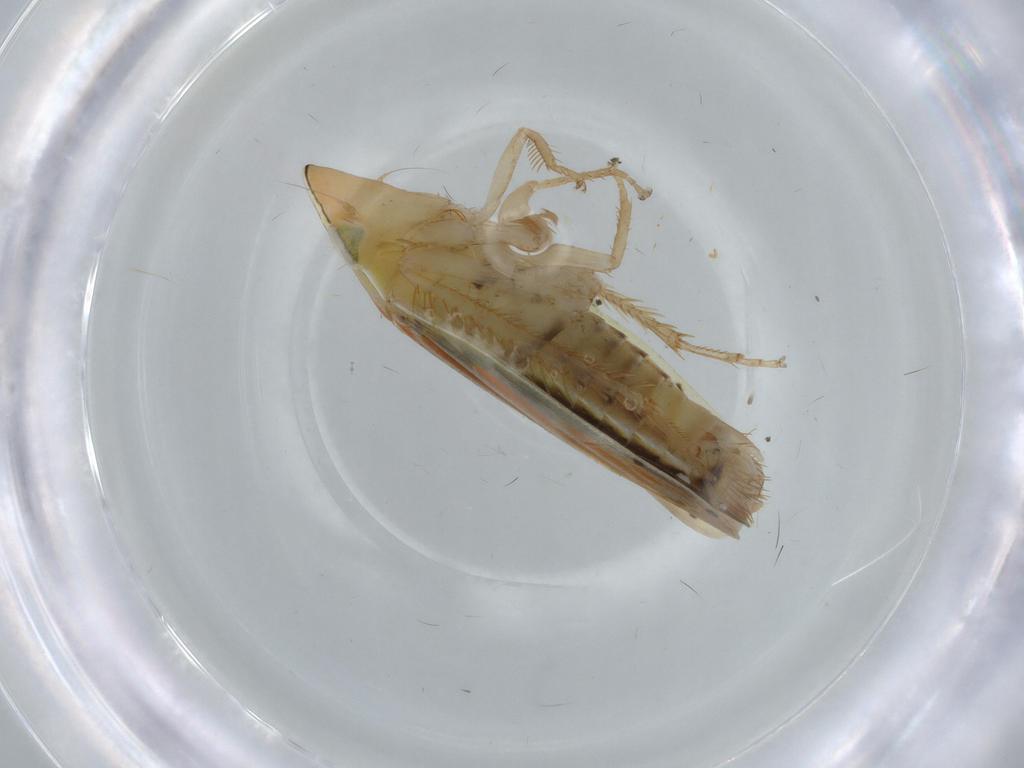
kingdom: Animalia
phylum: Arthropoda
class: Insecta
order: Hemiptera
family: Cicadellidae
